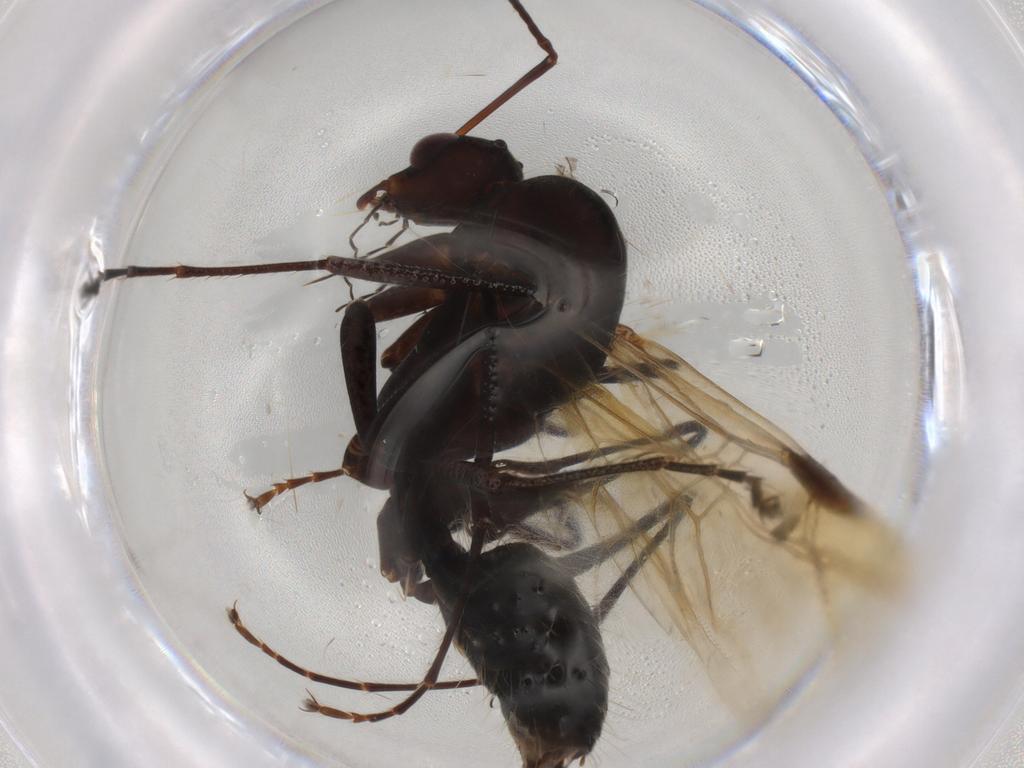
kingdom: Animalia
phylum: Arthropoda
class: Insecta
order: Hymenoptera
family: Formicidae
